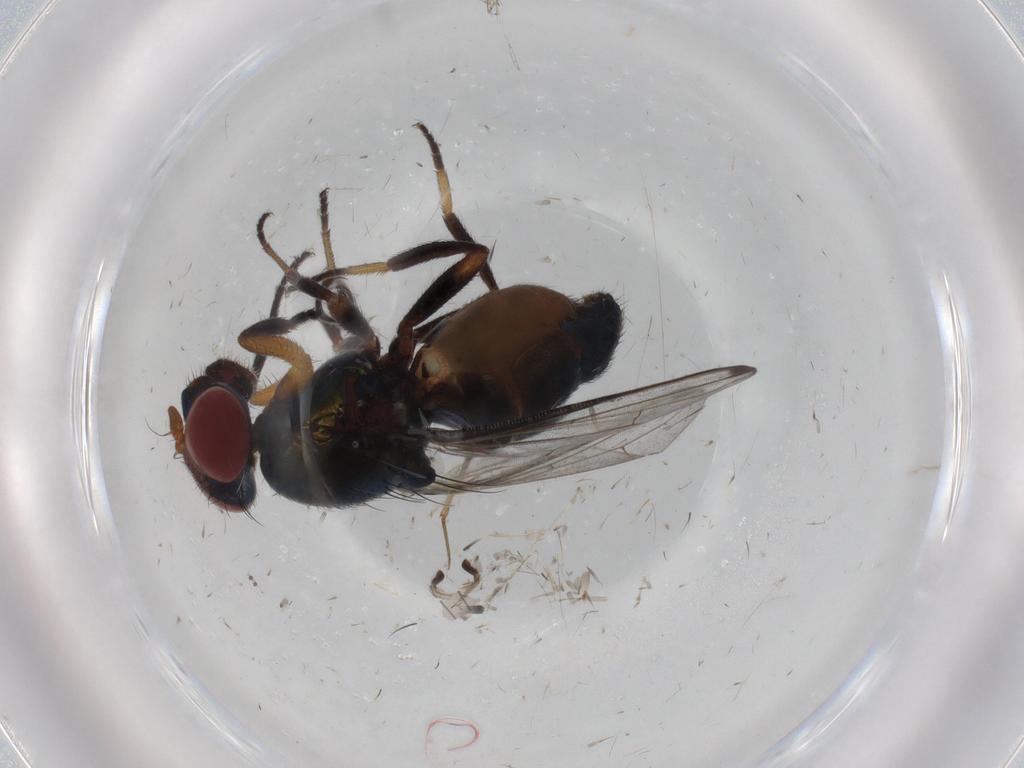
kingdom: Animalia
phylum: Arthropoda
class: Insecta
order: Diptera
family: Cecidomyiidae
